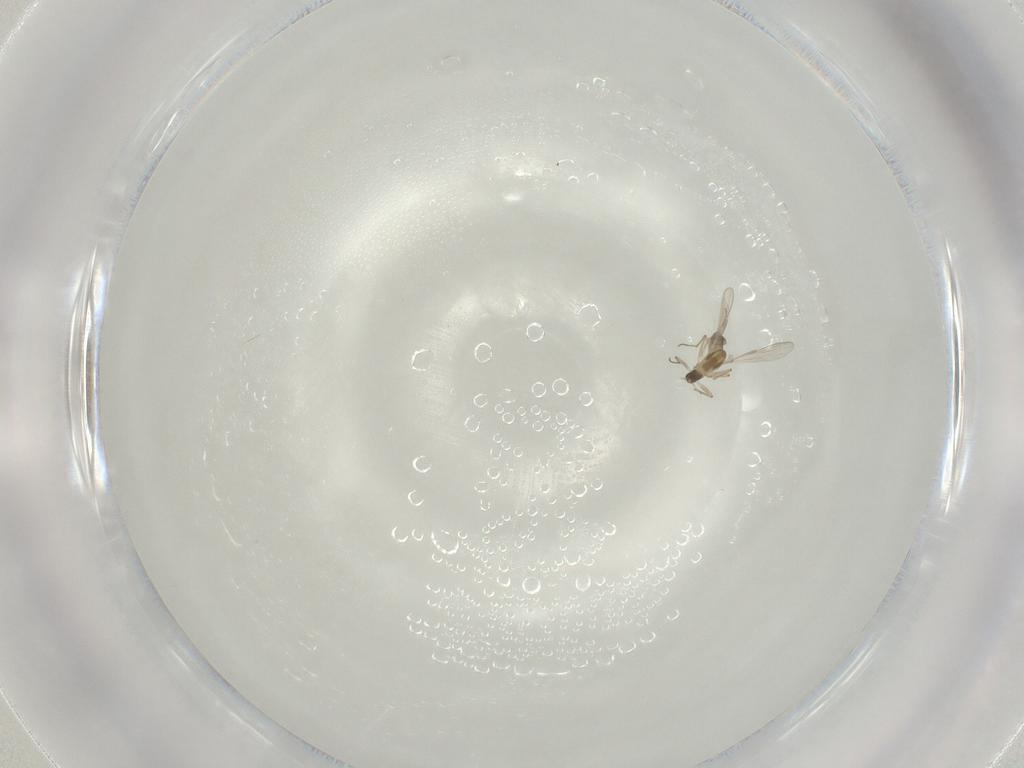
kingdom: Animalia
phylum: Arthropoda
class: Insecta
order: Diptera
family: Chironomidae
